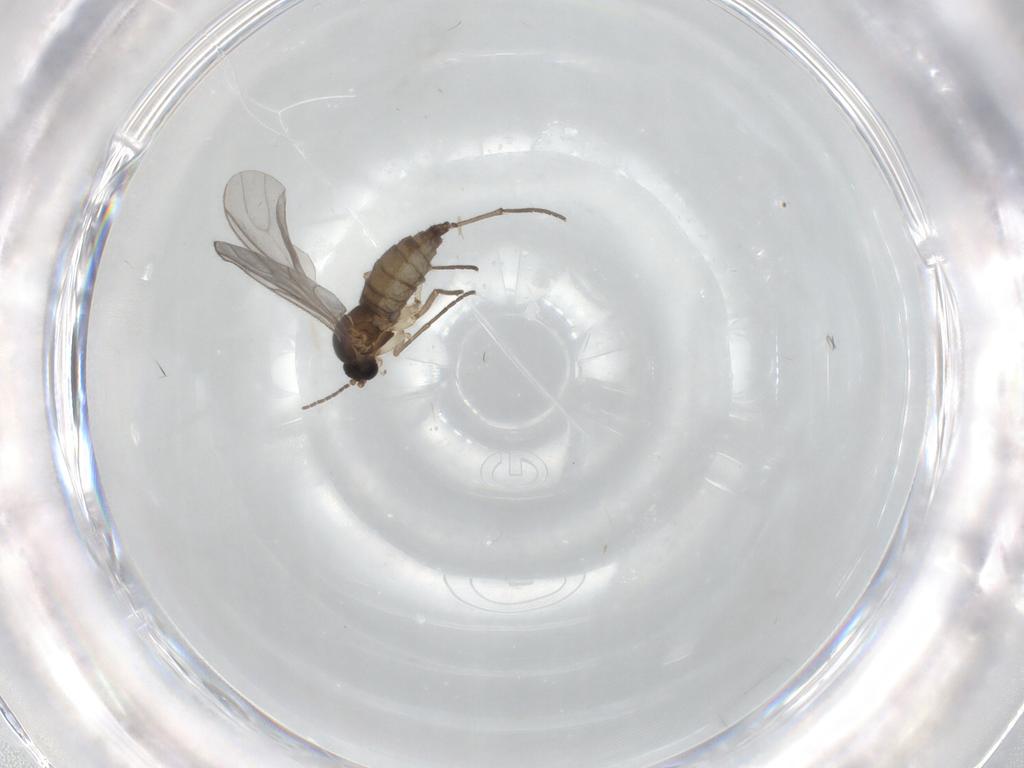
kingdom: Animalia
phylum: Arthropoda
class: Insecta
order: Diptera
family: Sciaridae
